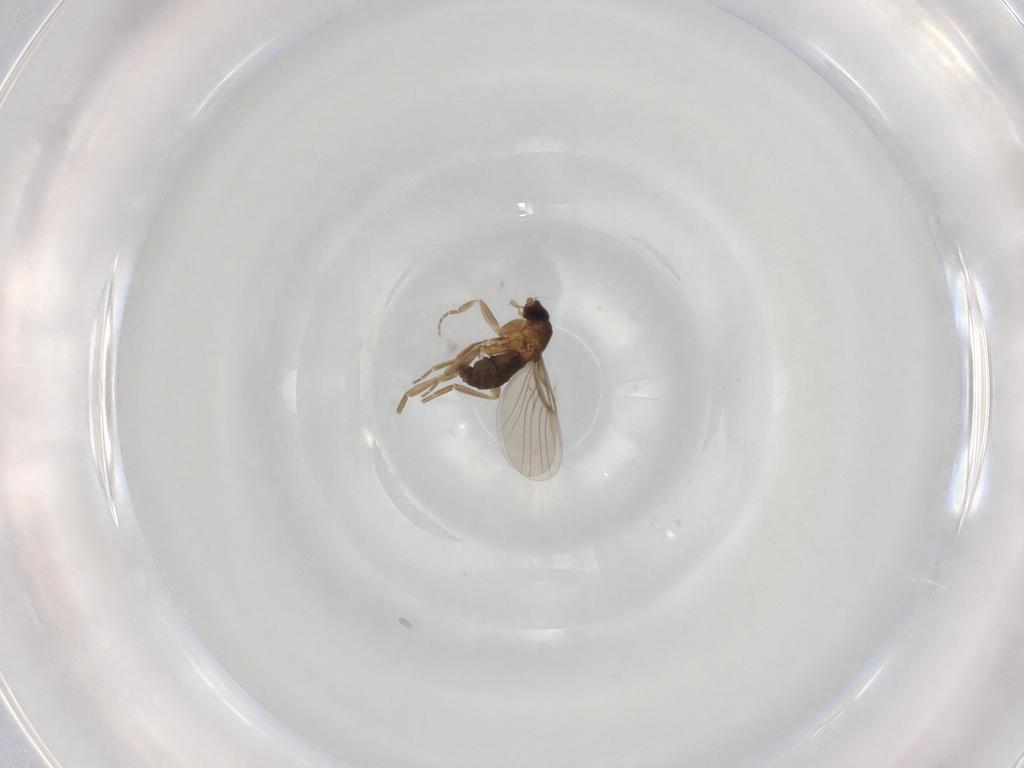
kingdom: Animalia
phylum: Arthropoda
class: Insecta
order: Diptera
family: Phoridae
